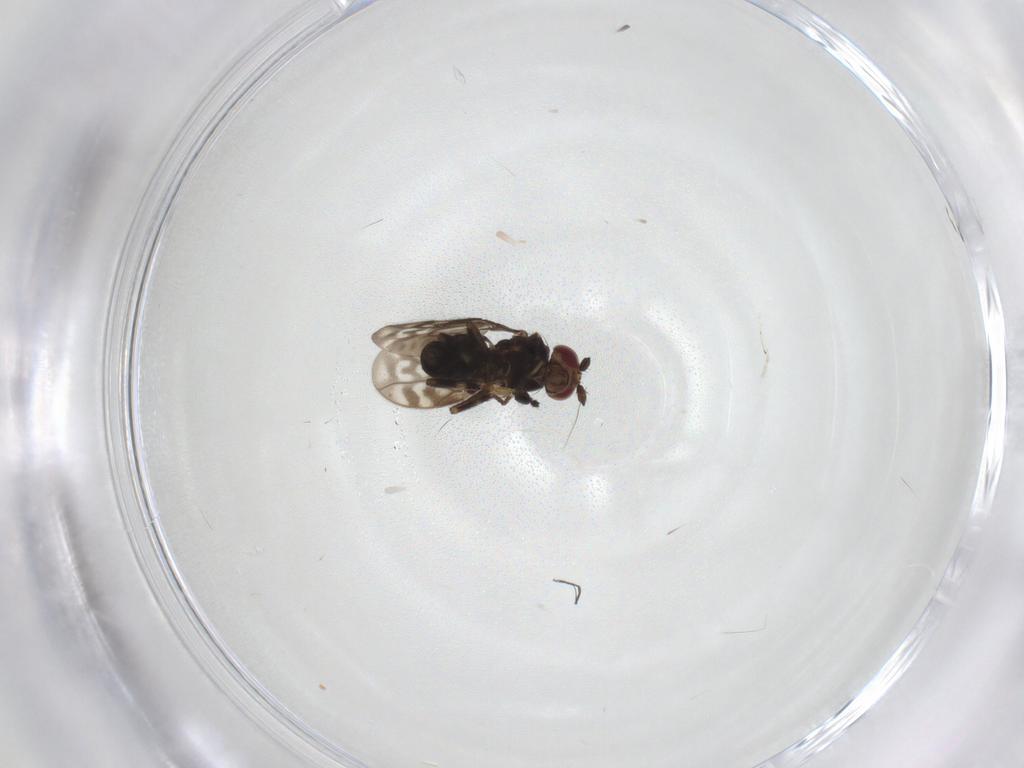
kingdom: Animalia
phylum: Arthropoda
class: Insecta
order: Diptera
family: Sphaeroceridae
